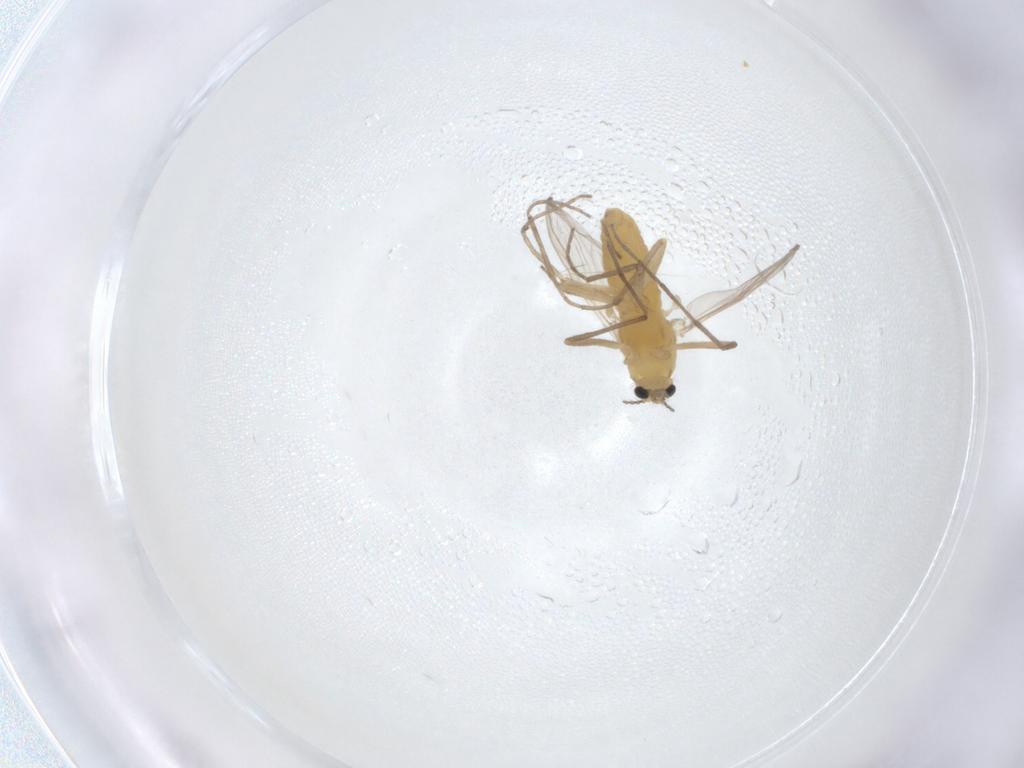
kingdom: Animalia
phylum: Arthropoda
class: Insecta
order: Diptera
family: Chironomidae
